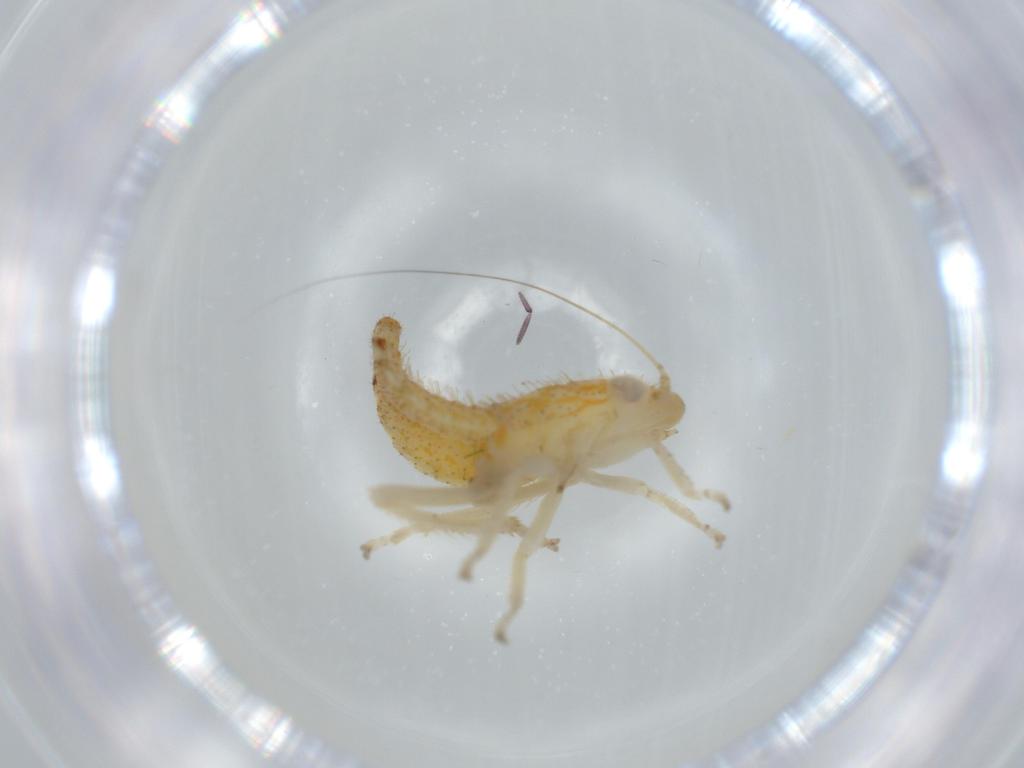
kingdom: Animalia
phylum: Arthropoda
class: Insecta
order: Hemiptera
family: Cicadellidae
